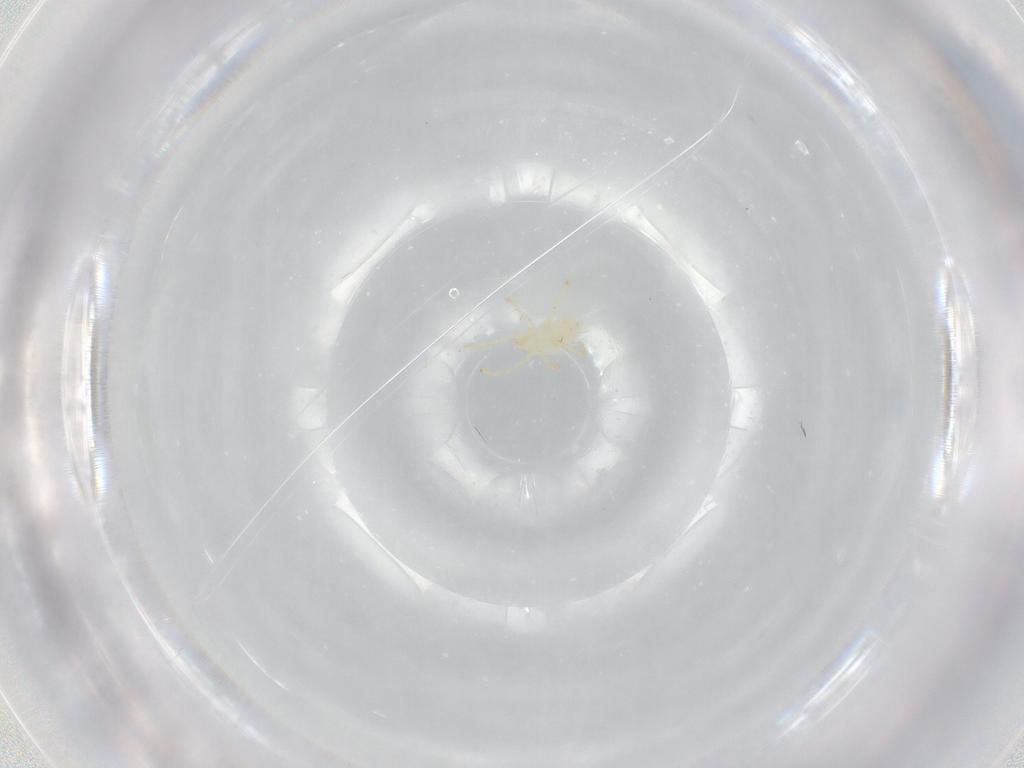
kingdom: Animalia
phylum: Arthropoda
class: Arachnida
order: Trombidiformes
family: Trombidiidae
